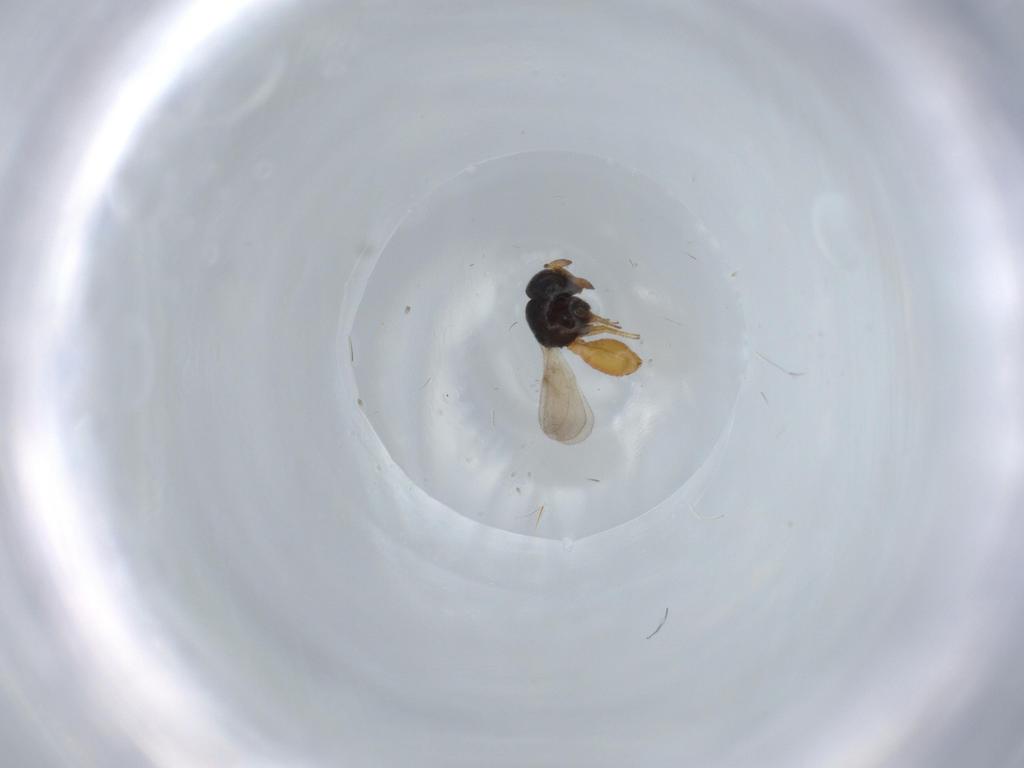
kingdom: Animalia
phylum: Arthropoda
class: Insecta
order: Hymenoptera
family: Scelionidae
